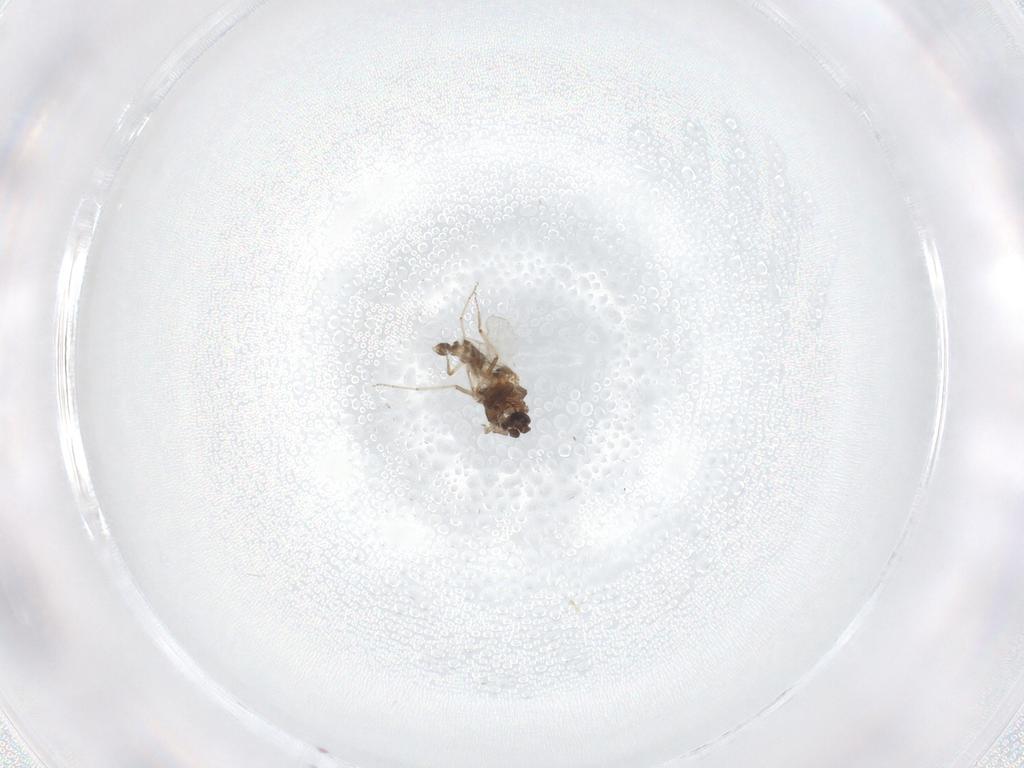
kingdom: Animalia
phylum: Arthropoda
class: Insecta
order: Diptera
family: Ceratopogonidae
